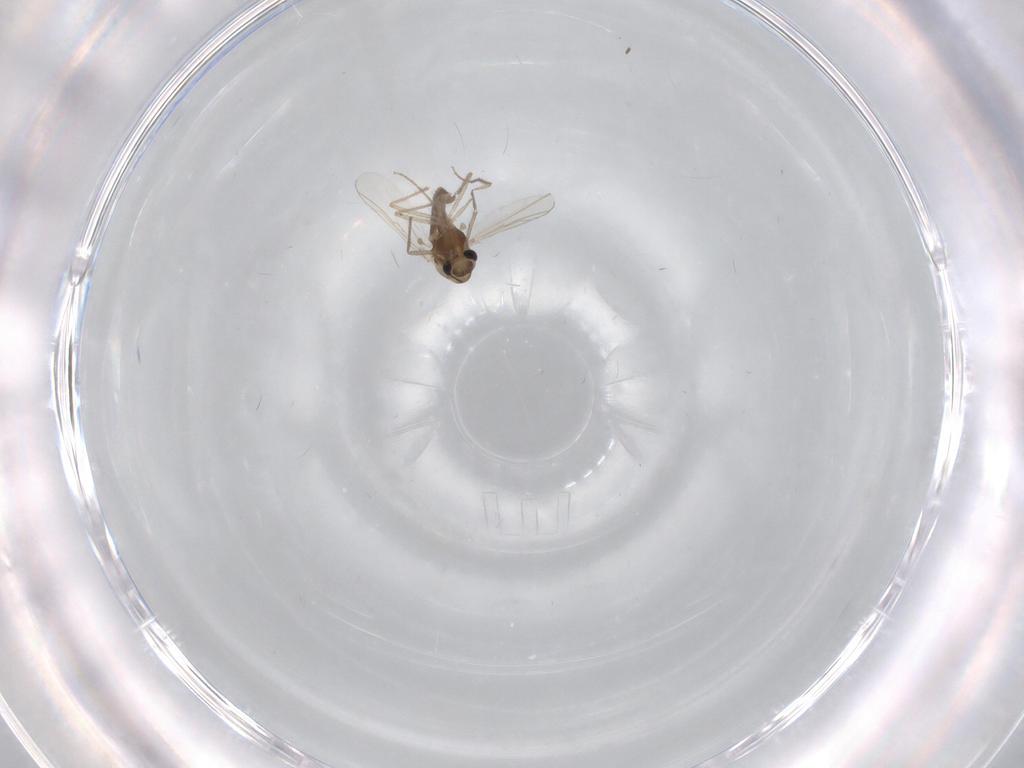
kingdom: Animalia
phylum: Arthropoda
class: Insecta
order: Diptera
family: Chironomidae
